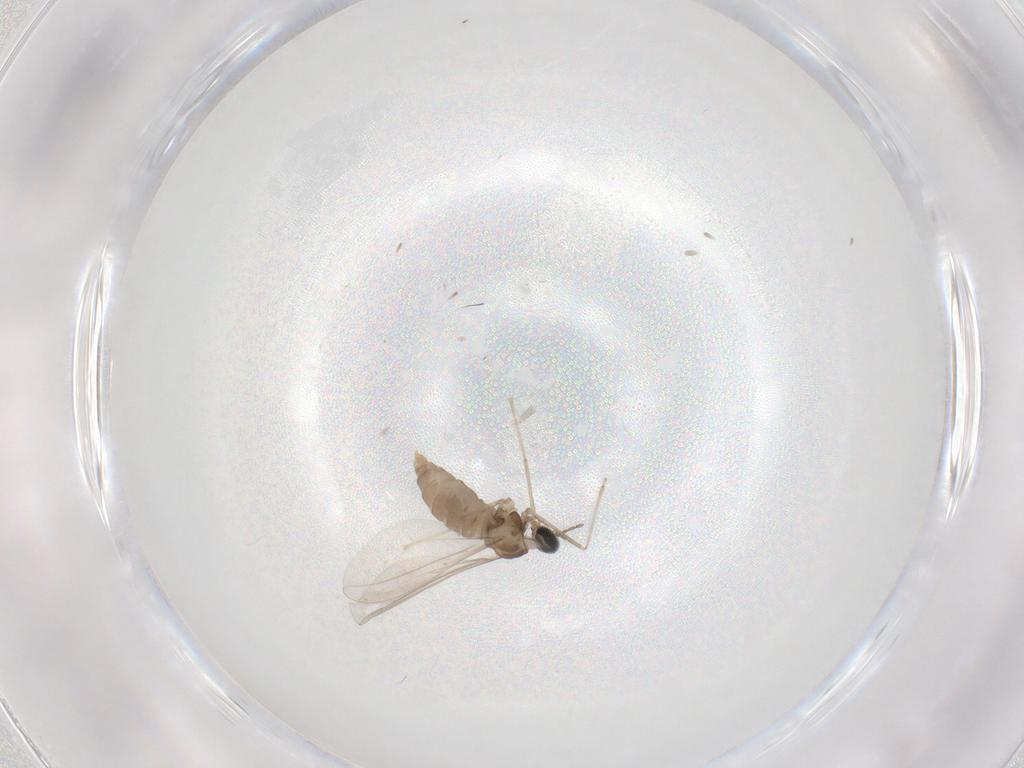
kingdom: Animalia
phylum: Arthropoda
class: Insecta
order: Diptera
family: Cecidomyiidae
